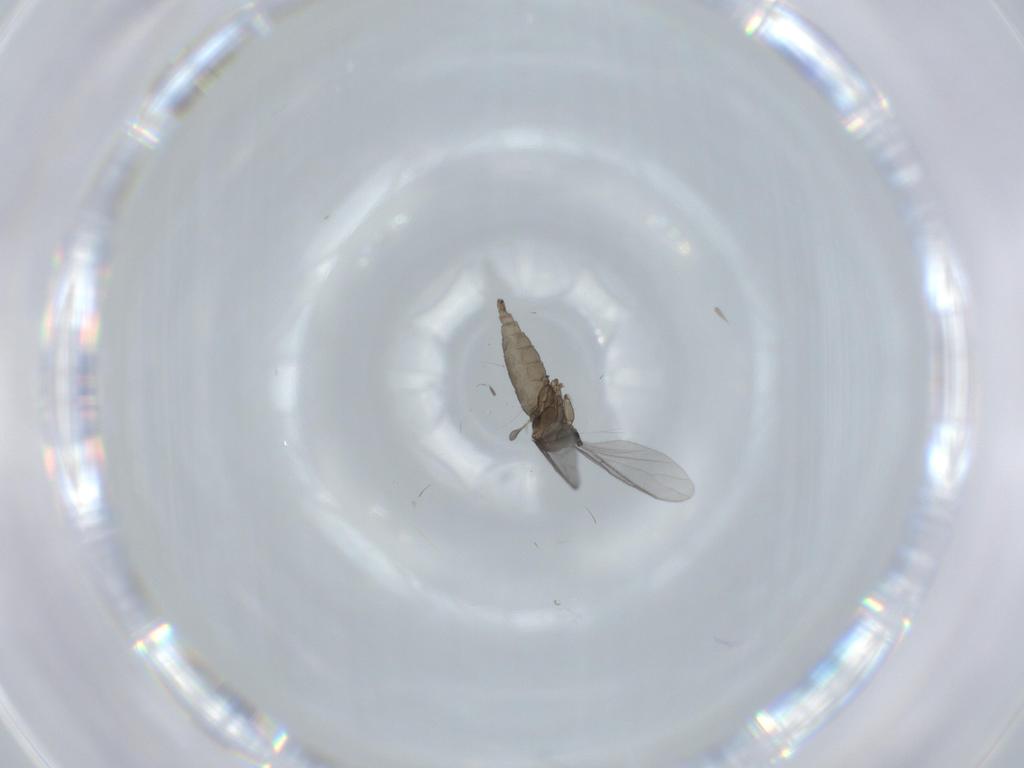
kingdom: Animalia
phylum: Arthropoda
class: Insecta
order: Diptera
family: Sciaridae
